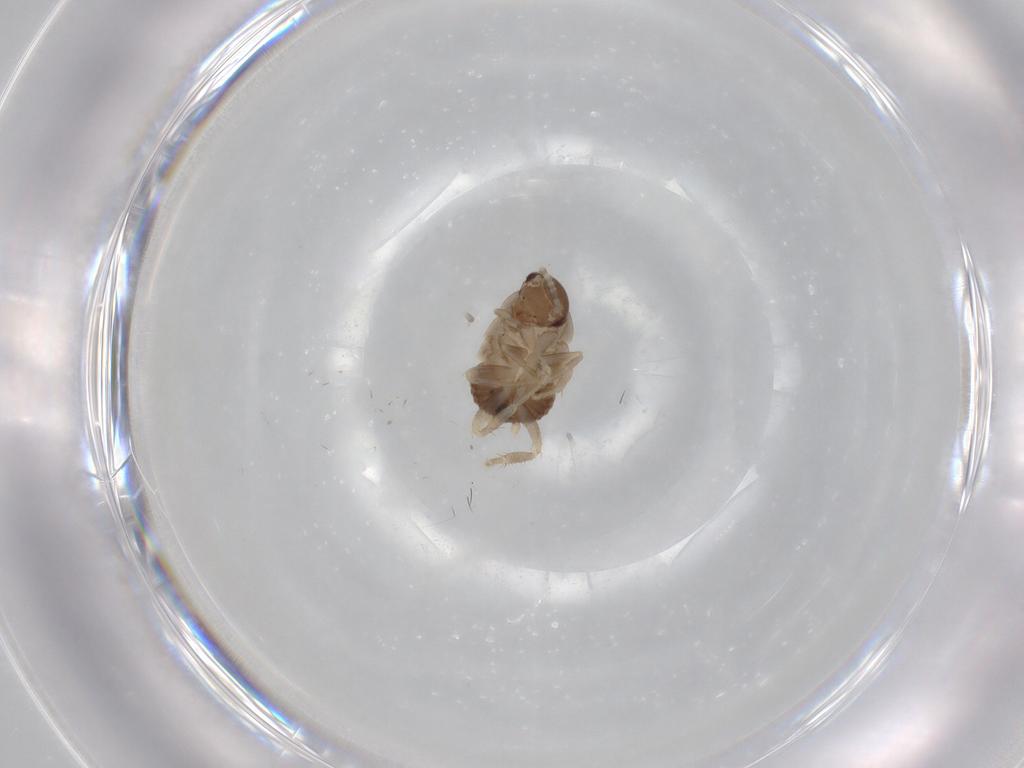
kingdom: Animalia
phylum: Arthropoda
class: Insecta
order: Blattodea
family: Ectobiidae
